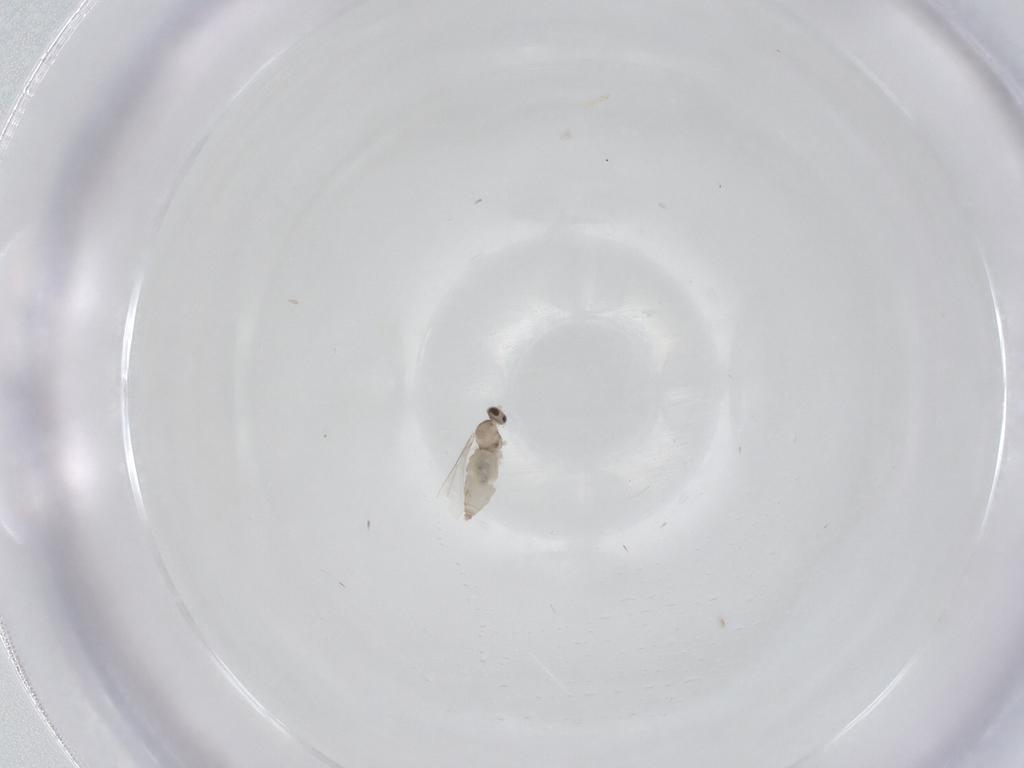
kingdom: Animalia
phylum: Arthropoda
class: Insecta
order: Diptera
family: Cecidomyiidae
